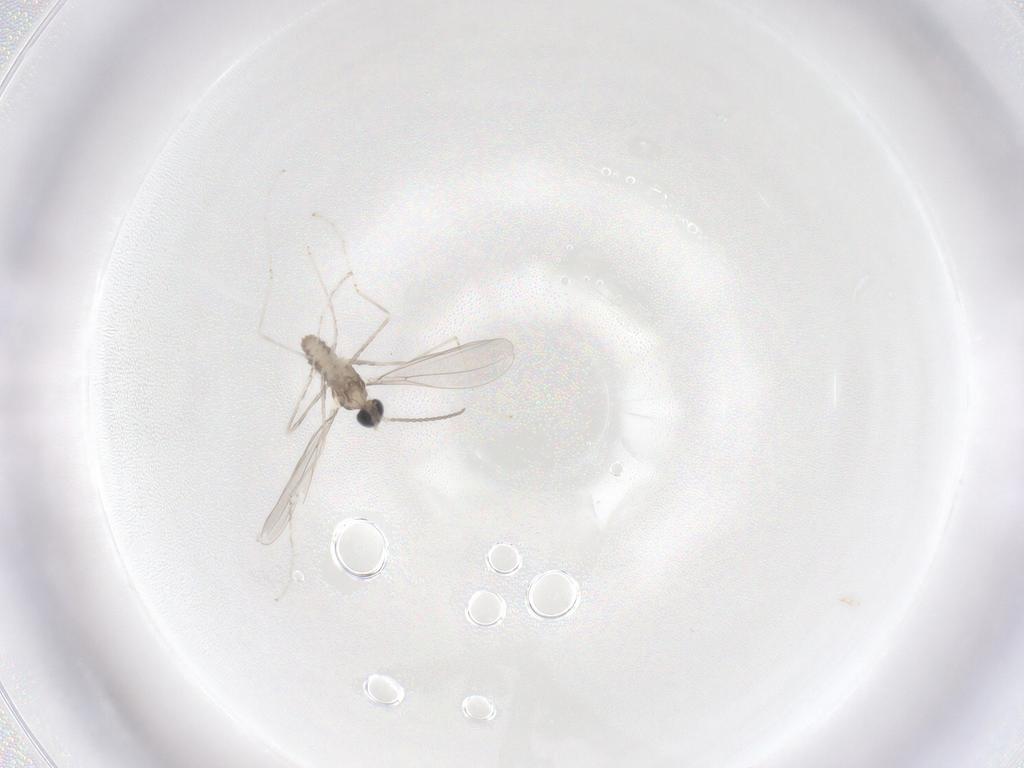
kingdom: Animalia
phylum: Arthropoda
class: Insecta
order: Diptera
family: Cecidomyiidae
